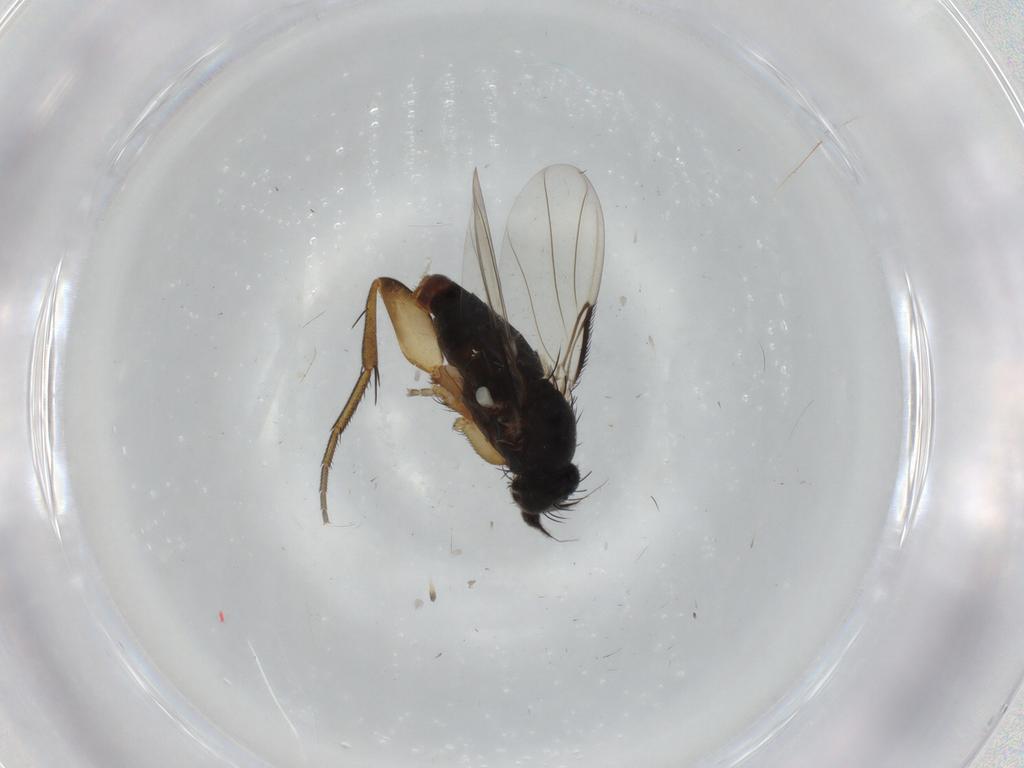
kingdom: Animalia
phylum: Arthropoda
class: Insecta
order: Diptera
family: Phoridae
